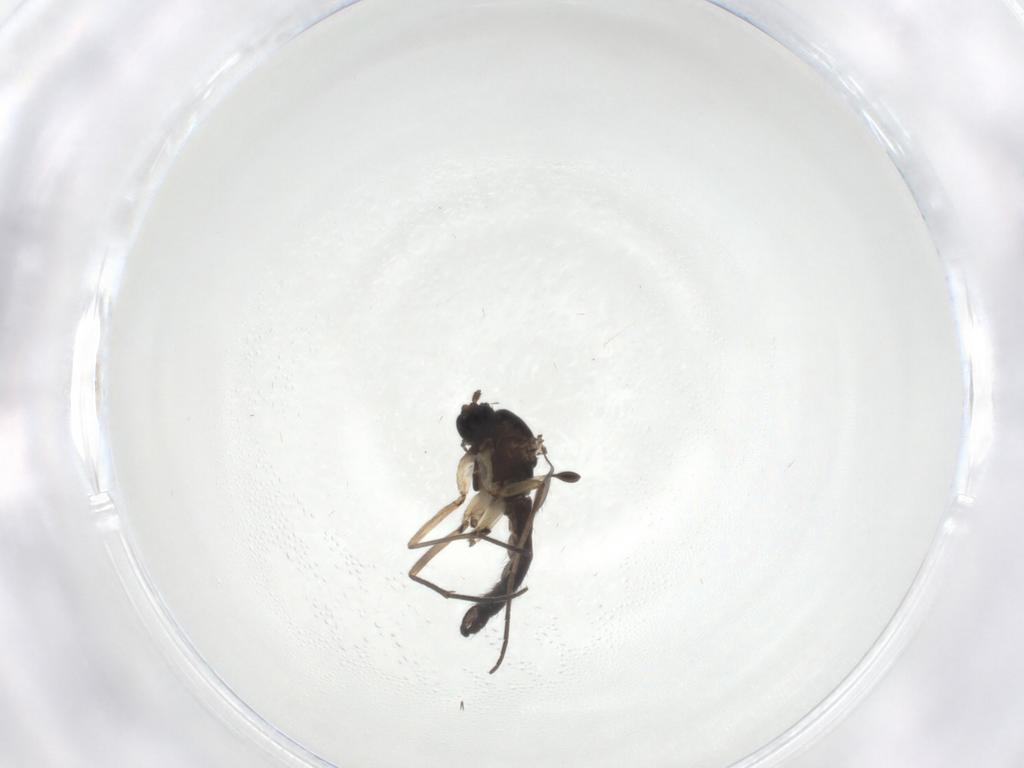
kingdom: Animalia
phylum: Arthropoda
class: Insecta
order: Diptera
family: Sciaridae
